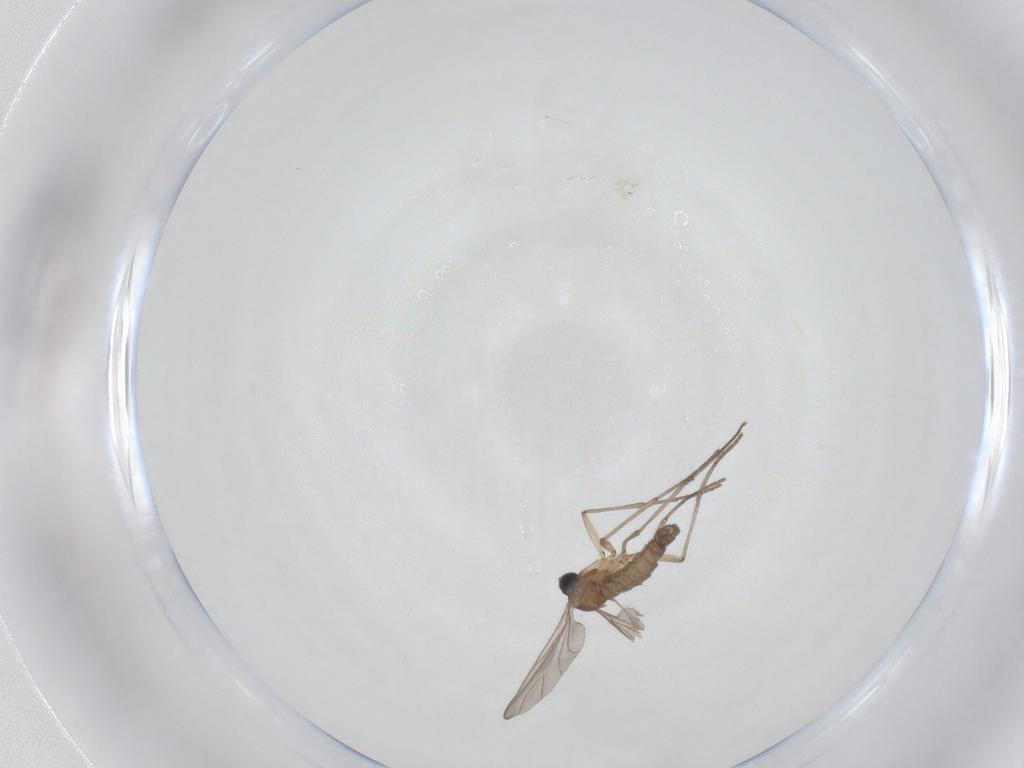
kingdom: Animalia
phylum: Arthropoda
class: Insecta
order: Diptera
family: Sciaridae
